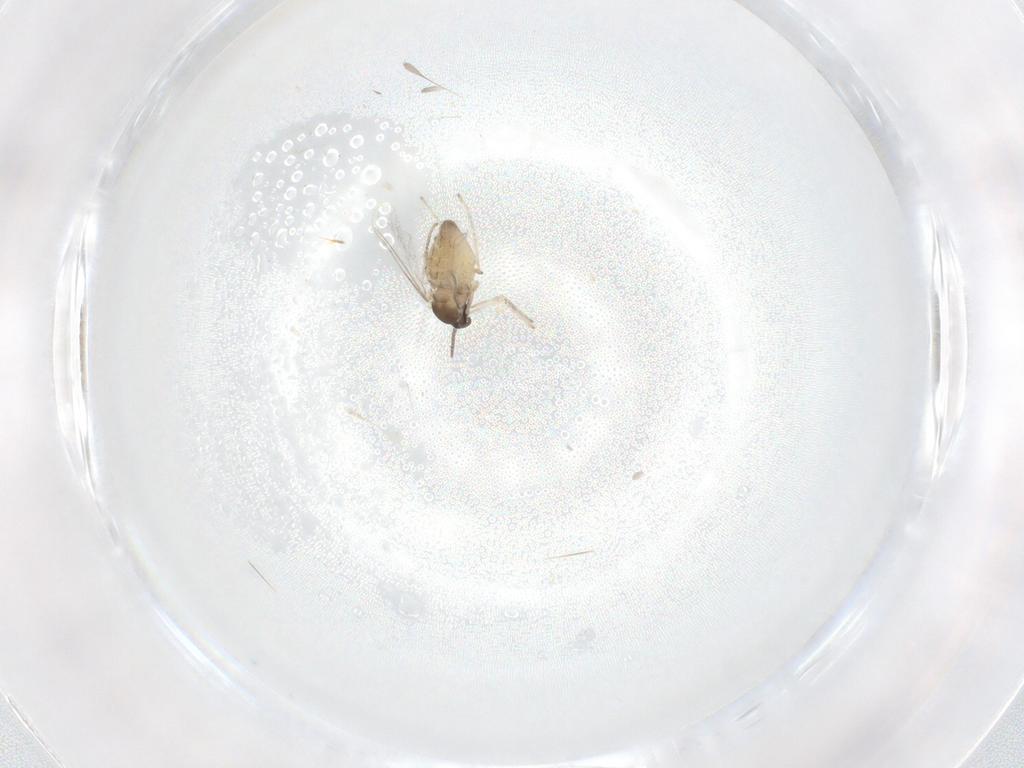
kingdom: Animalia
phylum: Arthropoda
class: Insecta
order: Diptera
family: Cecidomyiidae
